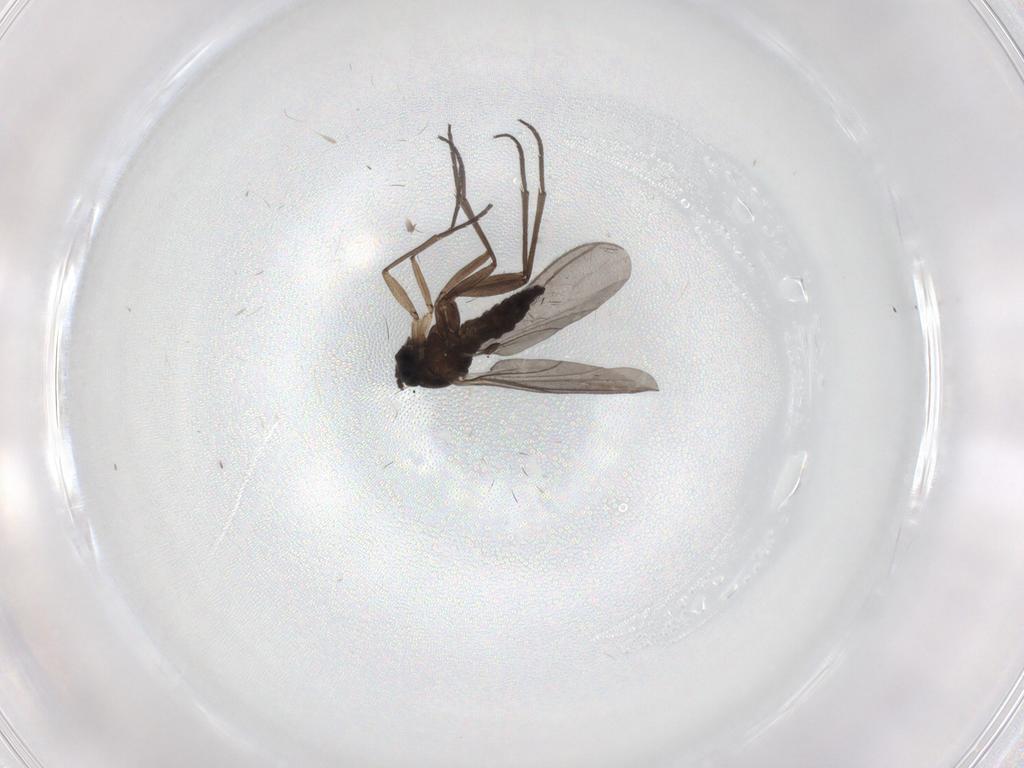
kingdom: Animalia
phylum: Arthropoda
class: Insecta
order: Diptera
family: Sciaridae
